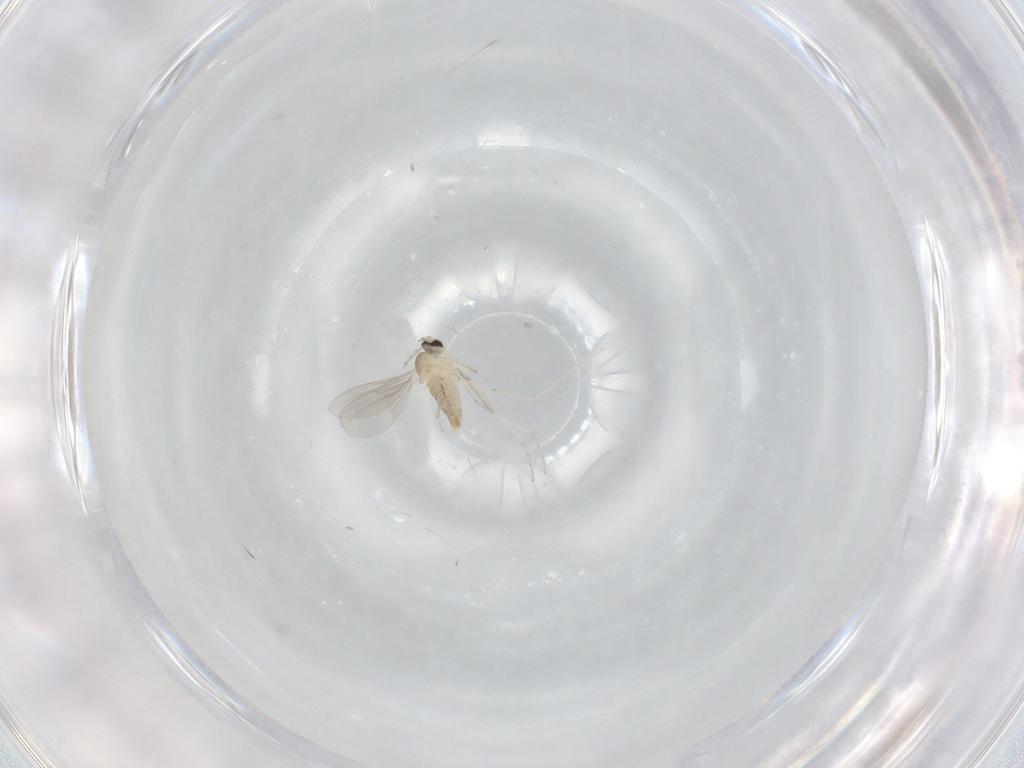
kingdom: Animalia
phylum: Arthropoda
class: Insecta
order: Diptera
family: Cecidomyiidae
